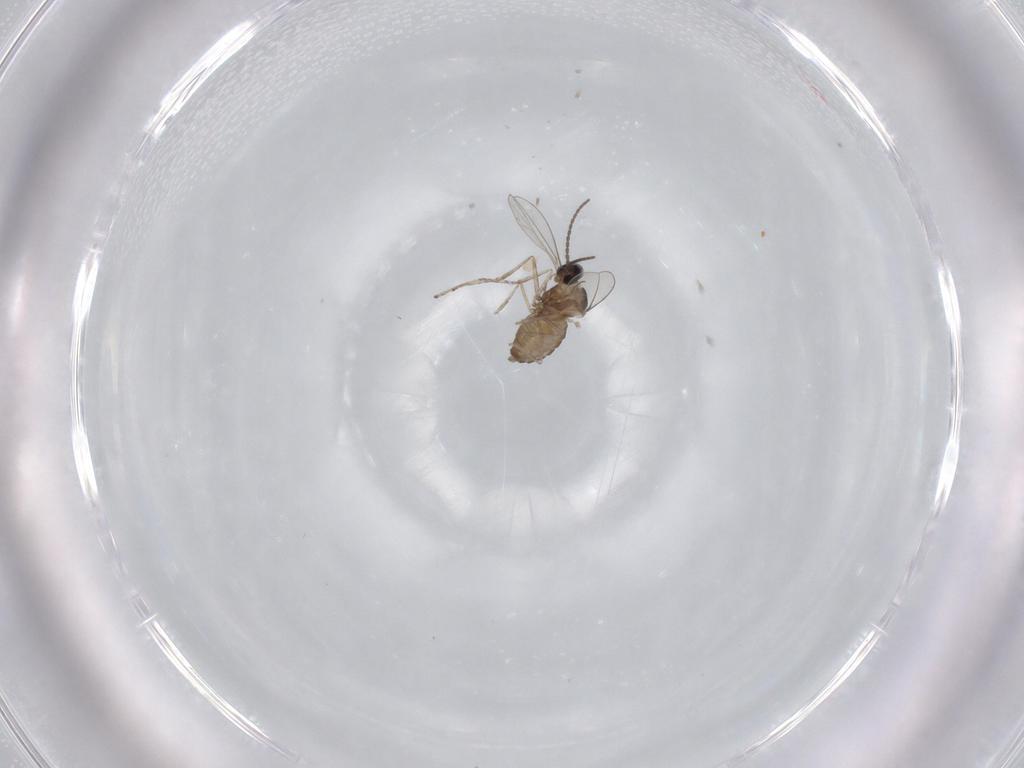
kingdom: Animalia
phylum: Arthropoda
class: Insecta
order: Diptera
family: Cecidomyiidae
